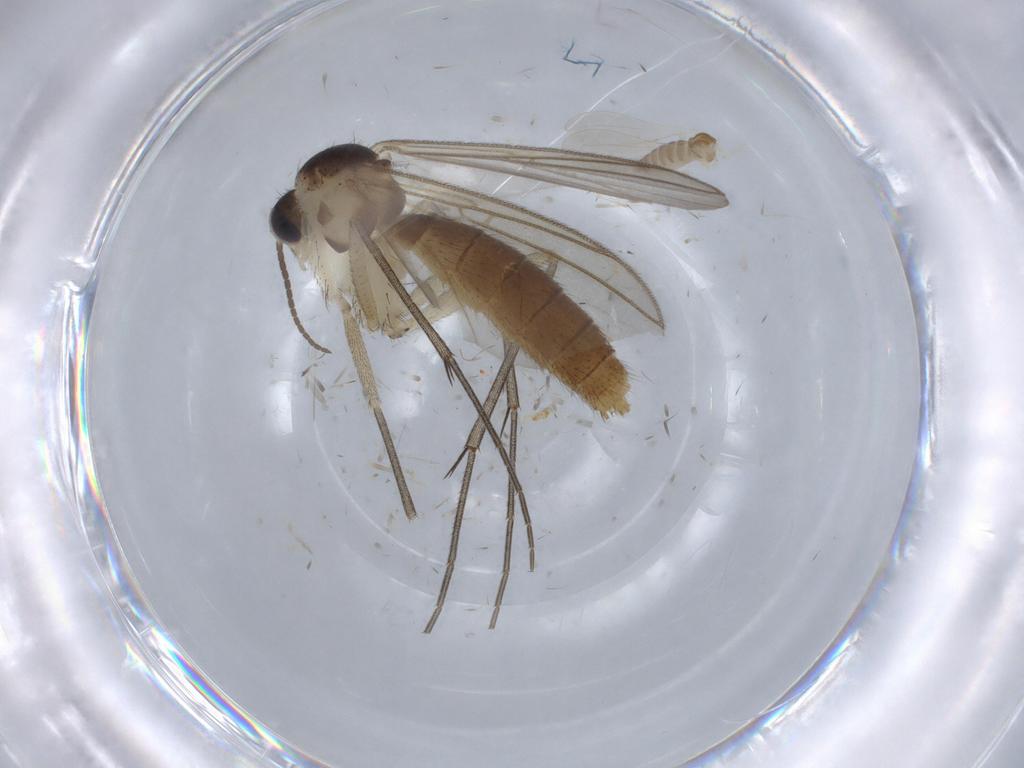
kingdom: Animalia
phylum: Arthropoda
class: Insecta
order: Diptera
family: Mycetophilidae
